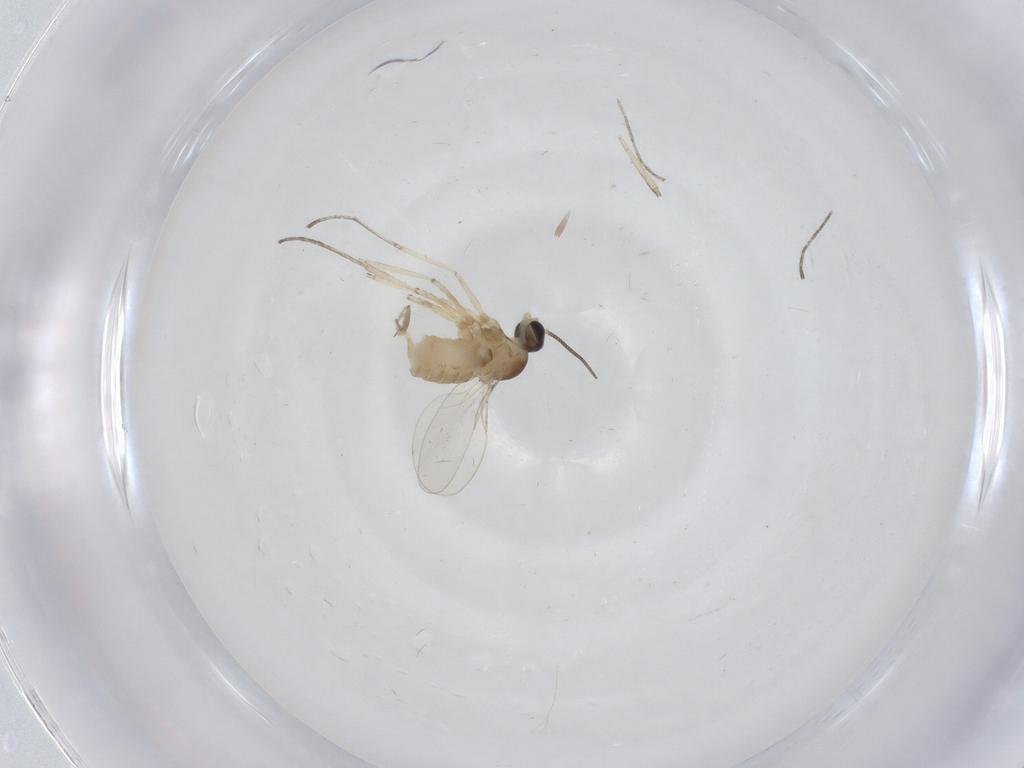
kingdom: Animalia
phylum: Arthropoda
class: Insecta
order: Diptera
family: Cecidomyiidae
